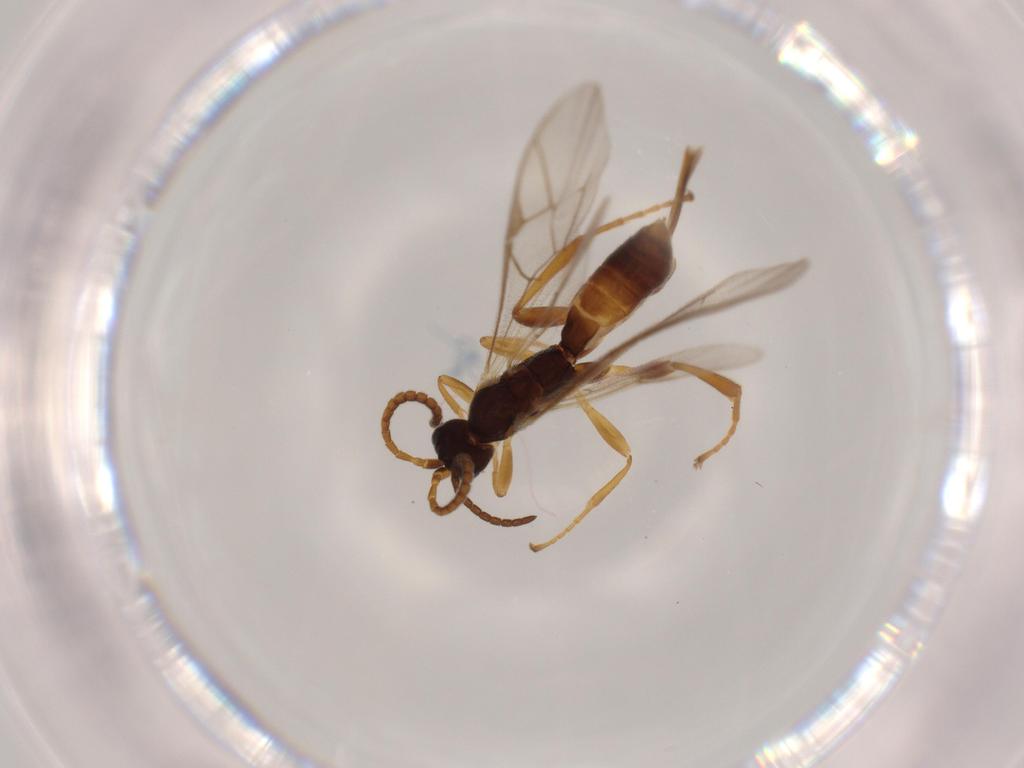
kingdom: Animalia
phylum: Arthropoda
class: Insecta
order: Hymenoptera
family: Ichneumonidae
